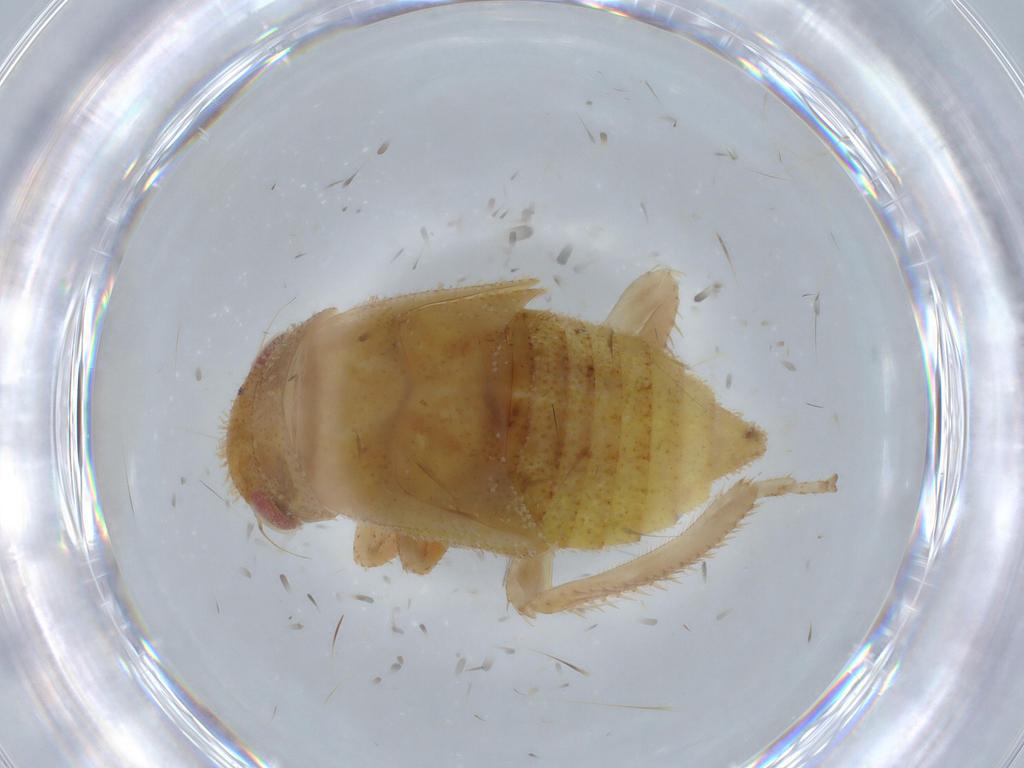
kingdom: Animalia
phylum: Arthropoda
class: Insecta
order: Hemiptera
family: Cicadellidae
